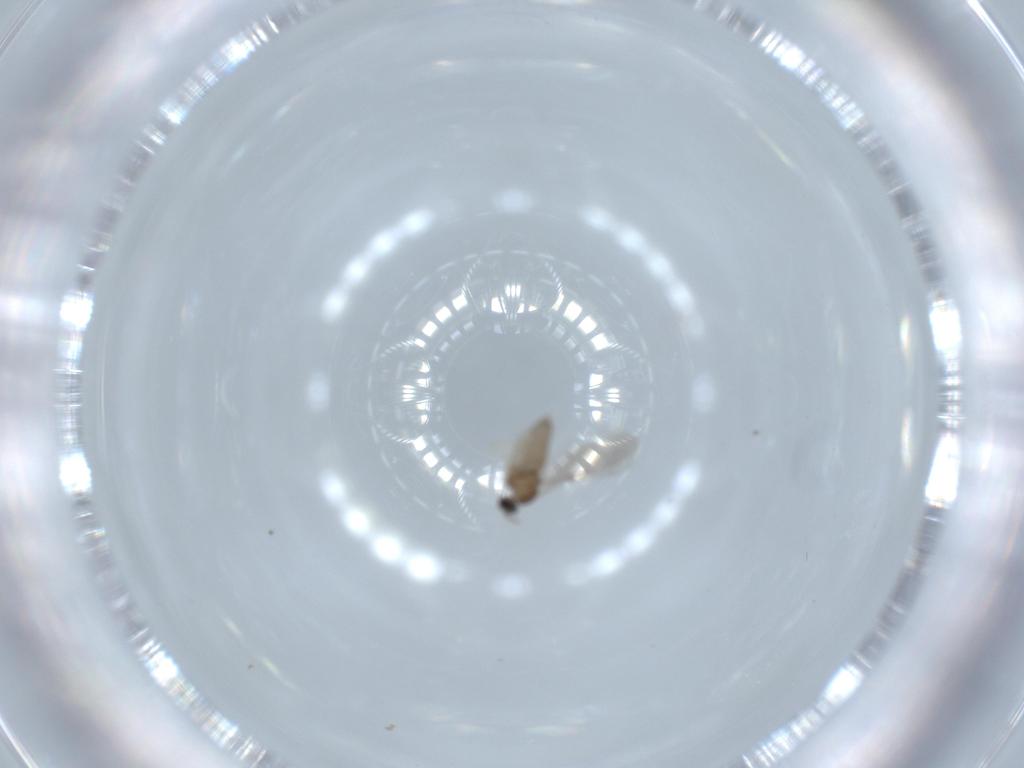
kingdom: Animalia
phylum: Arthropoda
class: Insecta
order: Diptera
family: Cecidomyiidae
